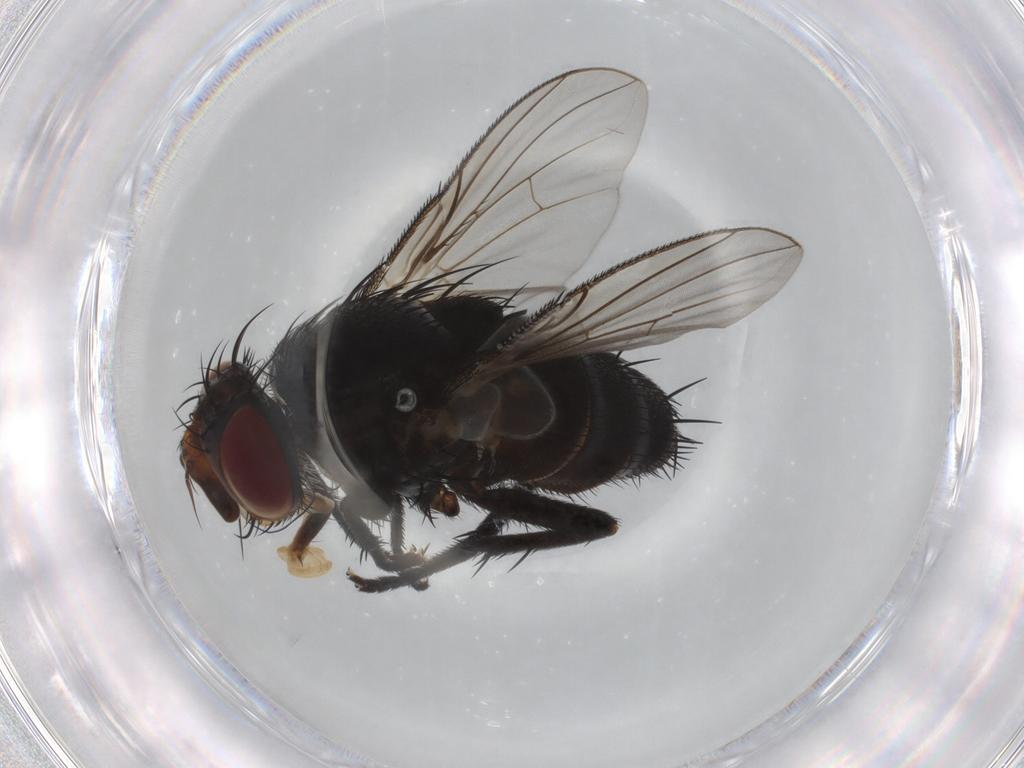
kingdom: Animalia
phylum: Arthropoda
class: Insecta
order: Diptera
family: Tachinidae
